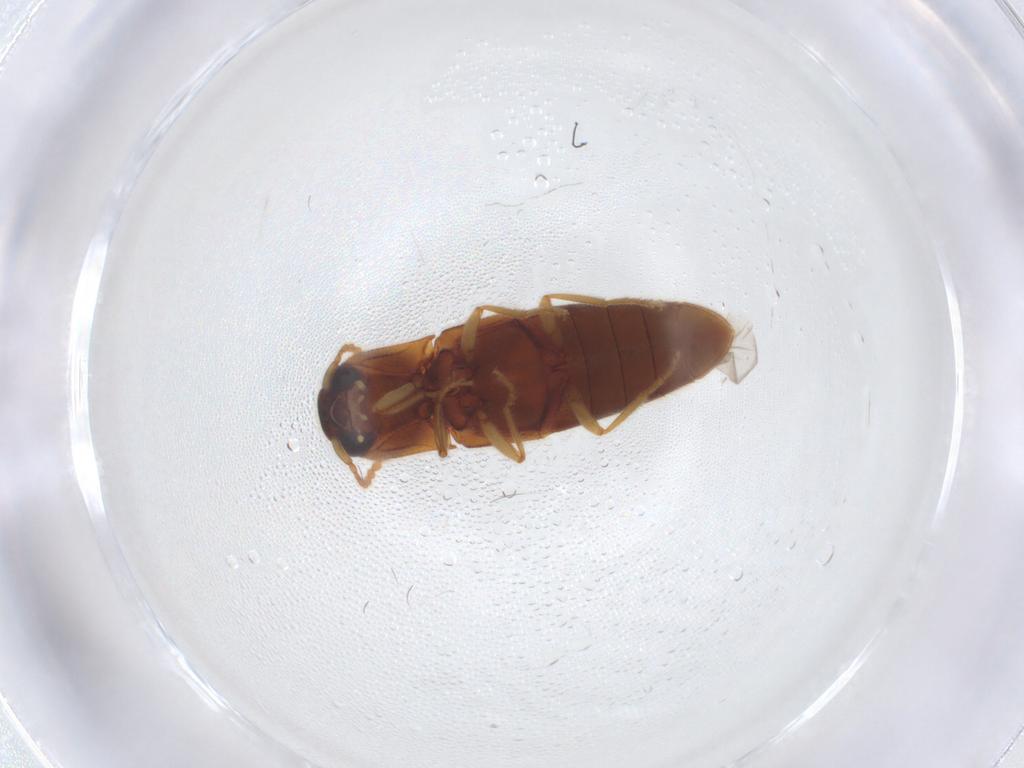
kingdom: Animalia
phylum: Arthropoda
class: Insecta
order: Coleoptera
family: Elateridae
